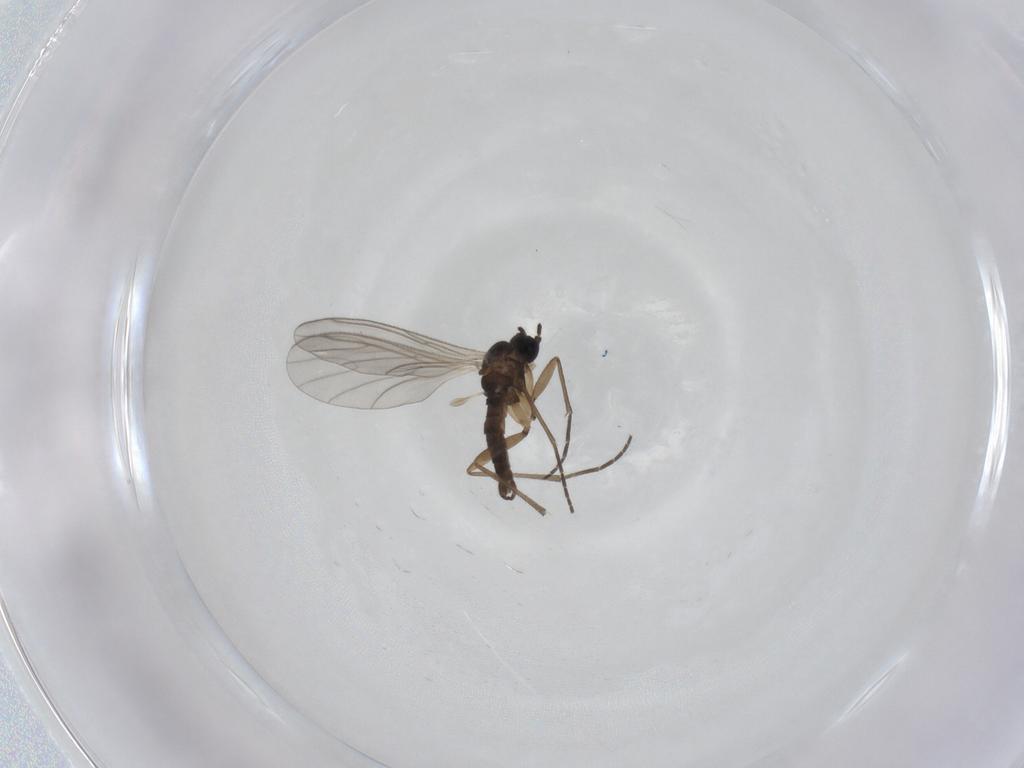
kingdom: Animalia
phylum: Arthropoda
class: Insecta
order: Diptera
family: Sciaridae
